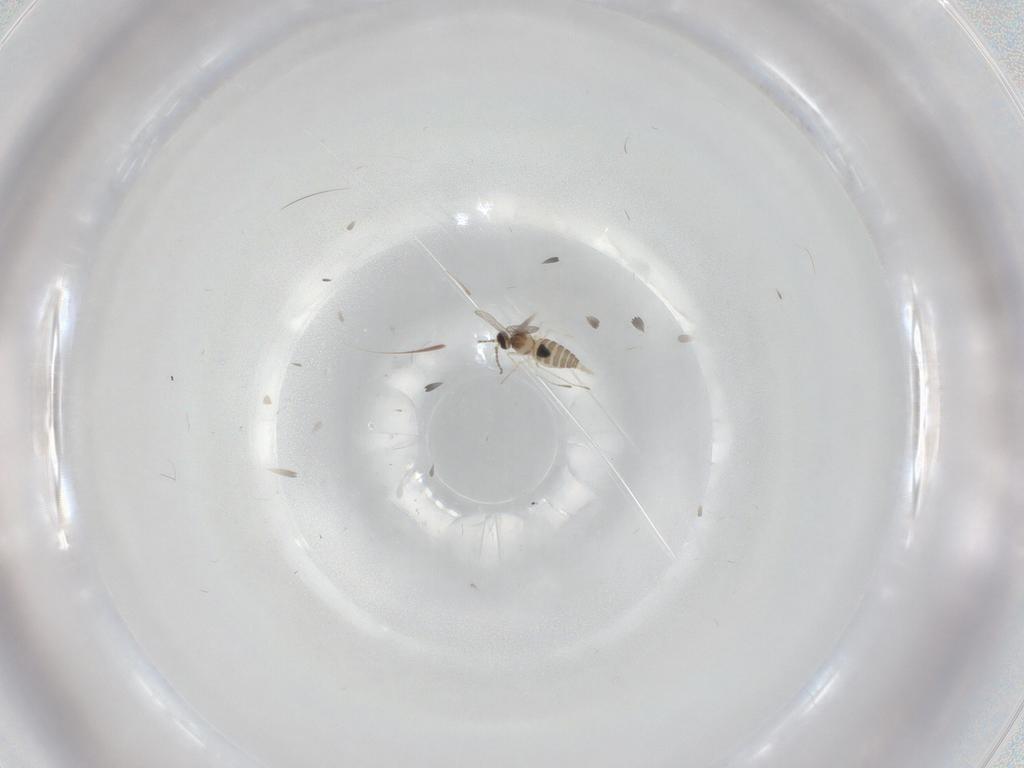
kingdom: Animalia
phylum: Arthropoda
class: Insecta
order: Diptera
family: Cecidomyiidae
